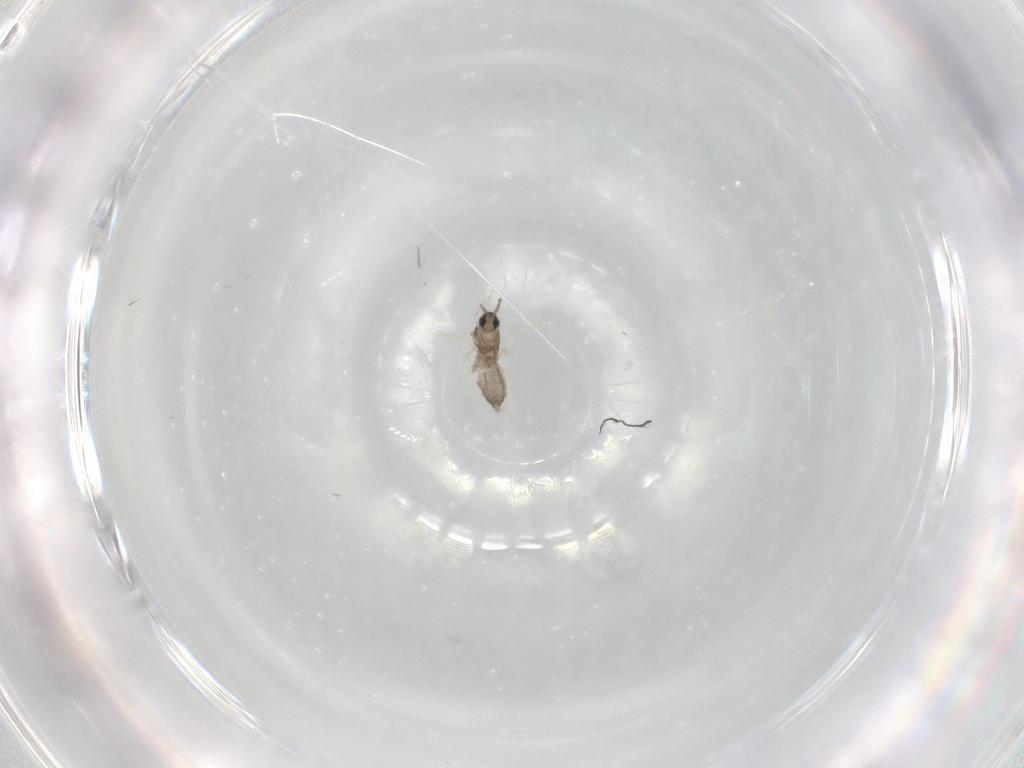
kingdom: Animalia
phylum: Arthropoda
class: Insecta
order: Diptera
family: Cecidomyiidae
